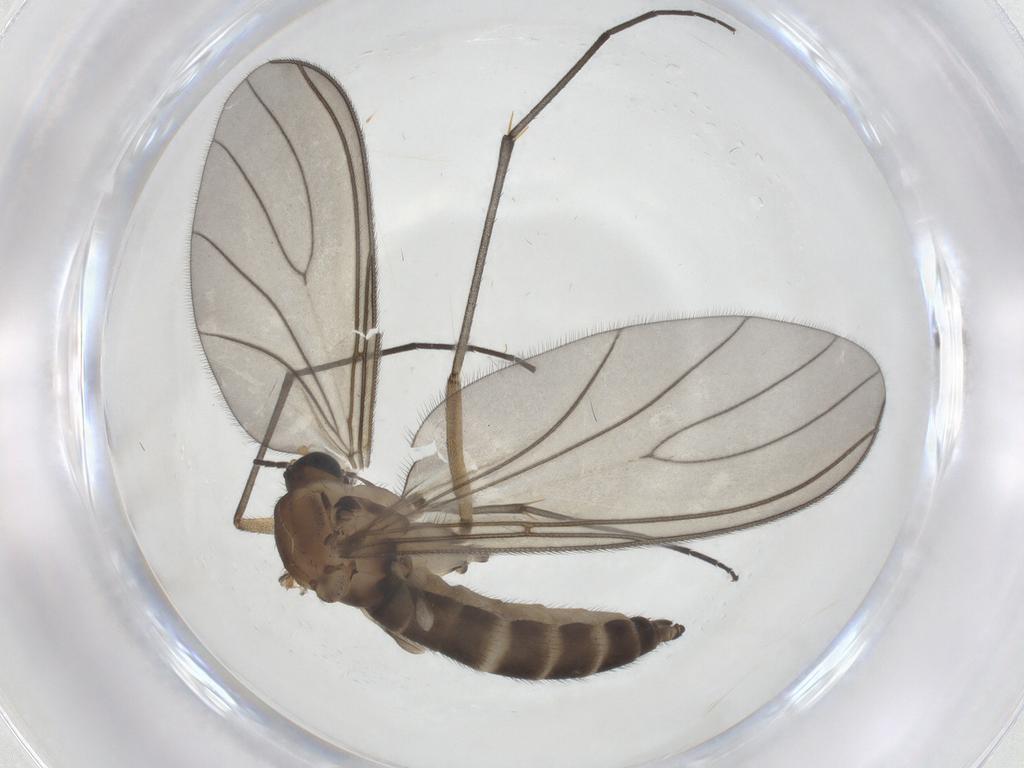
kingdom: Animalia
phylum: Arthropoda
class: Insecta
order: Diptera
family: Sciaridae
